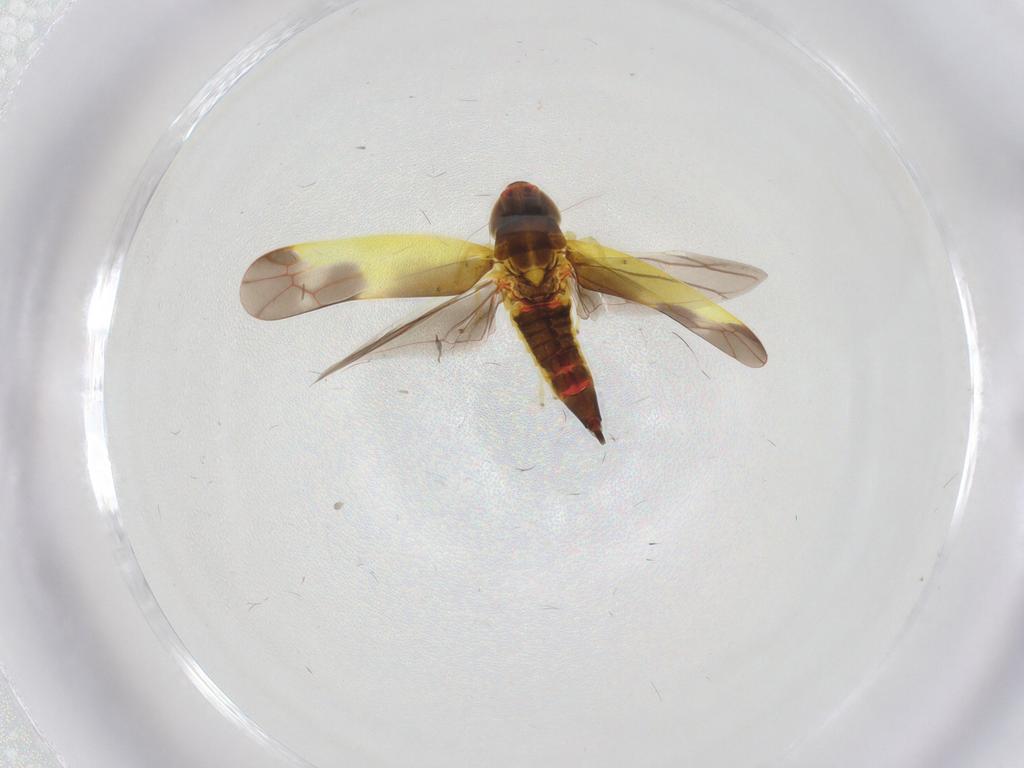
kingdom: Animalia
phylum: Arthropoda
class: Insecta
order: Hemiptera
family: Cicadellidae
